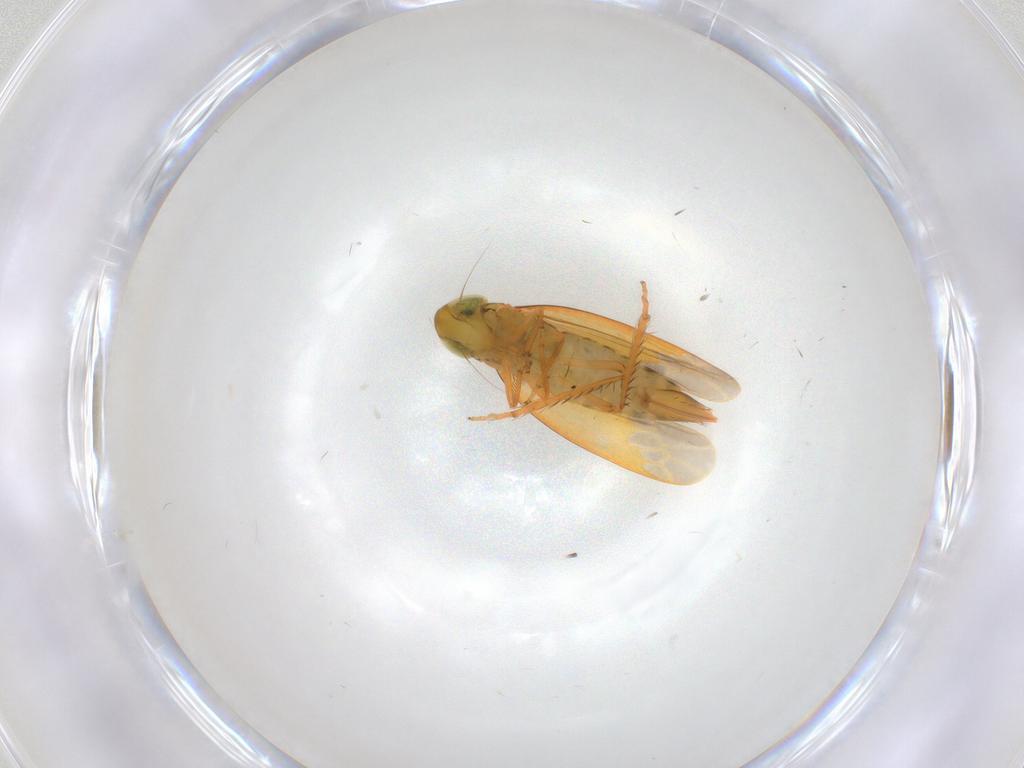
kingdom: Animalia
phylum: Arthropoda
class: Insecta
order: Hemiptera
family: Cicadellidae
